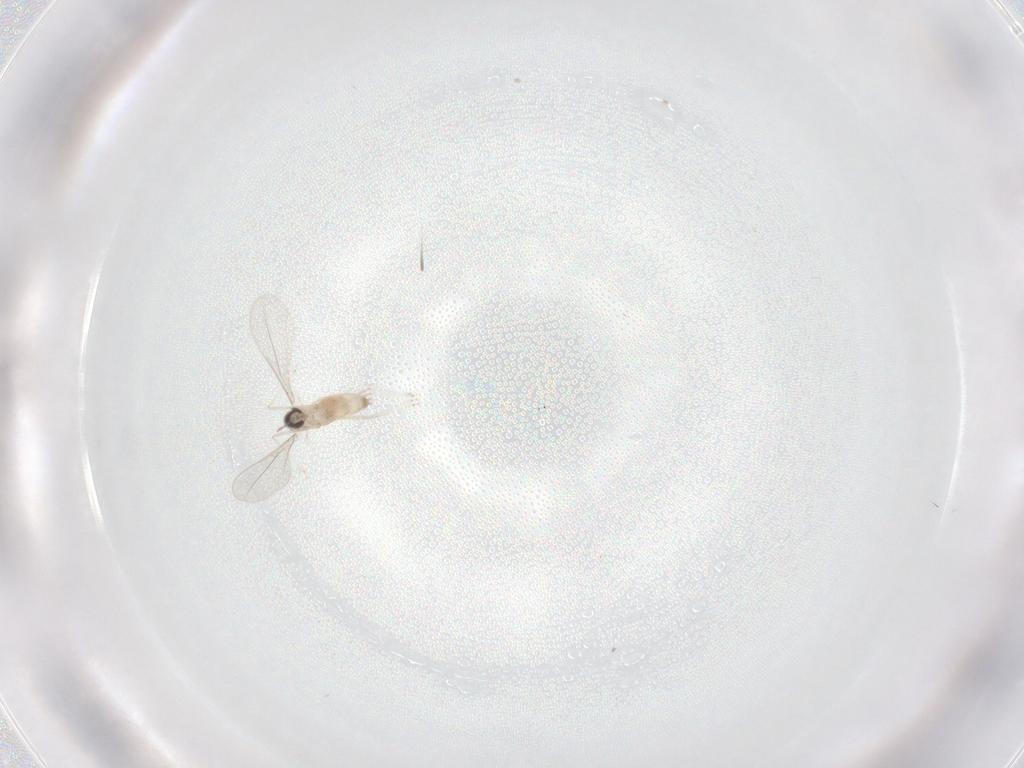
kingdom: Animalia
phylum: Arthropoda
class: Insecta
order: Diptera
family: Cecidomyiidae
